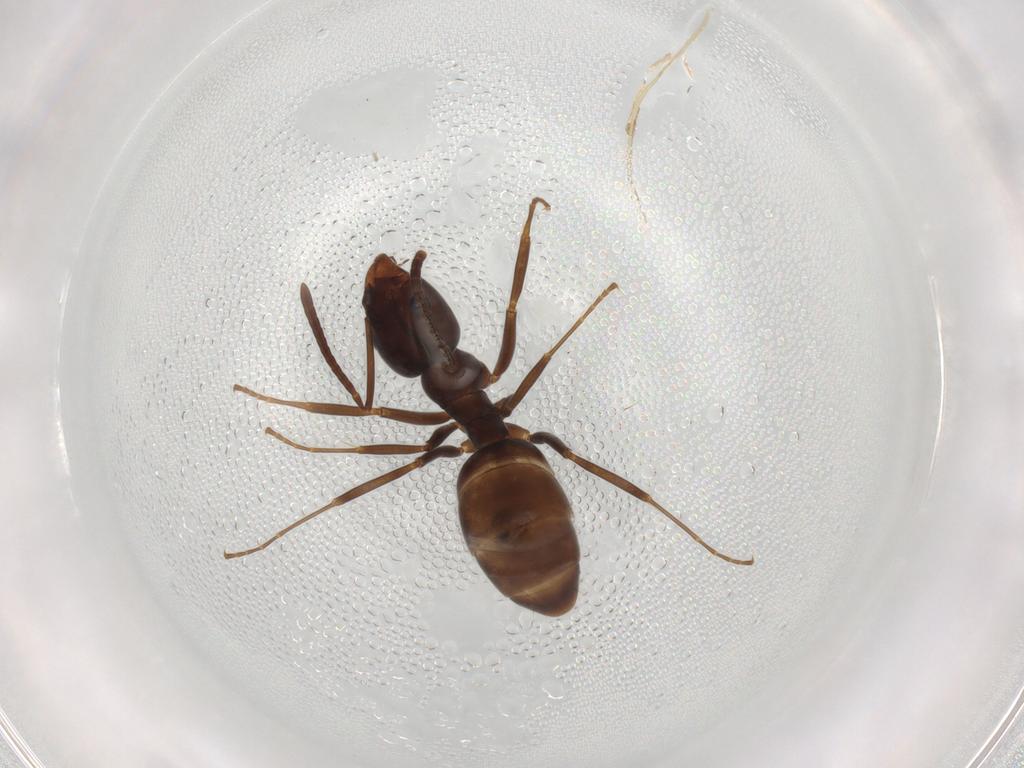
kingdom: Animalia
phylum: Arthropoda
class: Insecta
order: Hymenoptera
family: Formicidae
